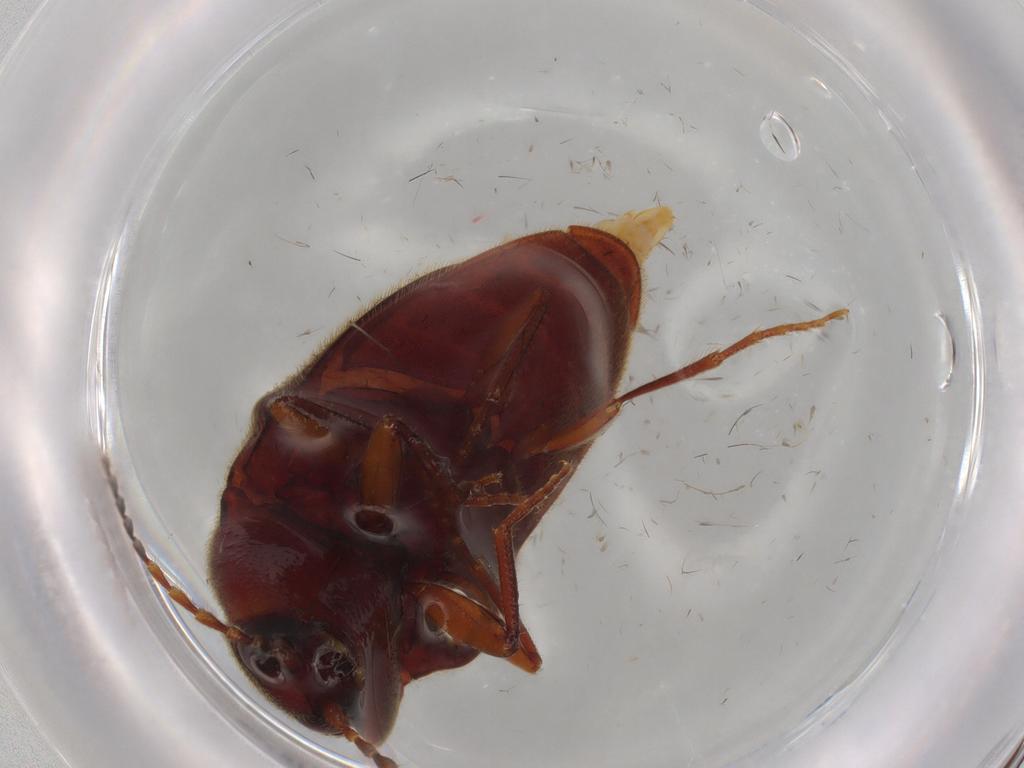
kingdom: Animalia
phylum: Arthropoda
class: Insecta
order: Coleoptera
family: Elateridae
